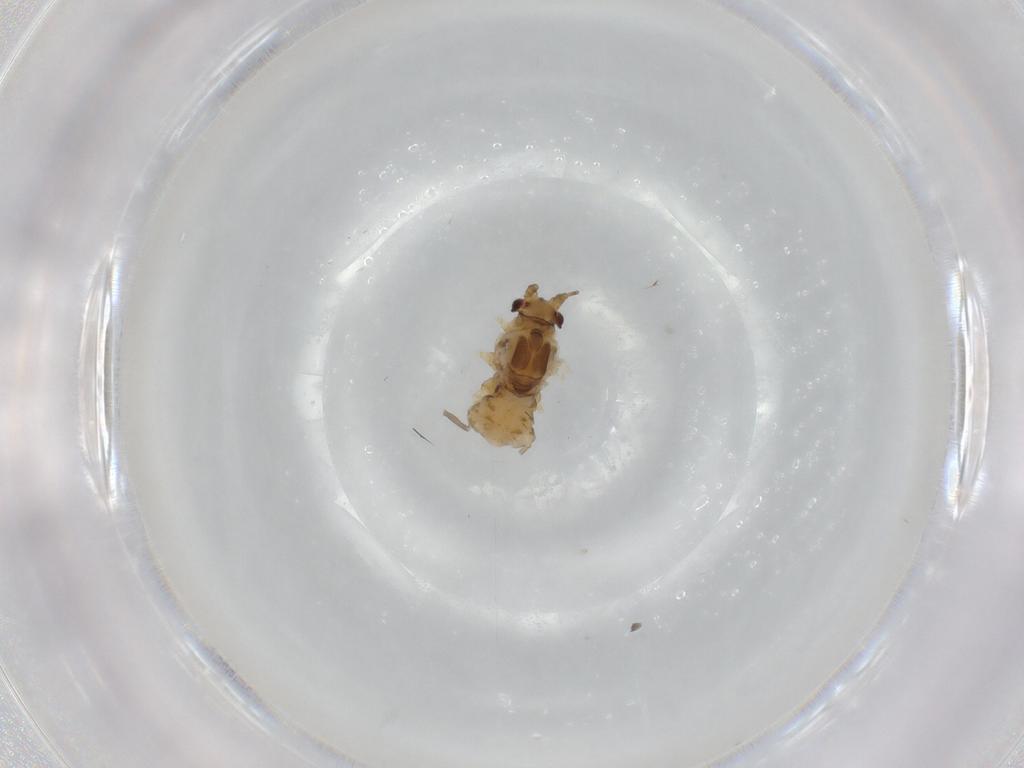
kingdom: Animalia
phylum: Arthropoda
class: Insecta
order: Hemiptera
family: Aphididae
